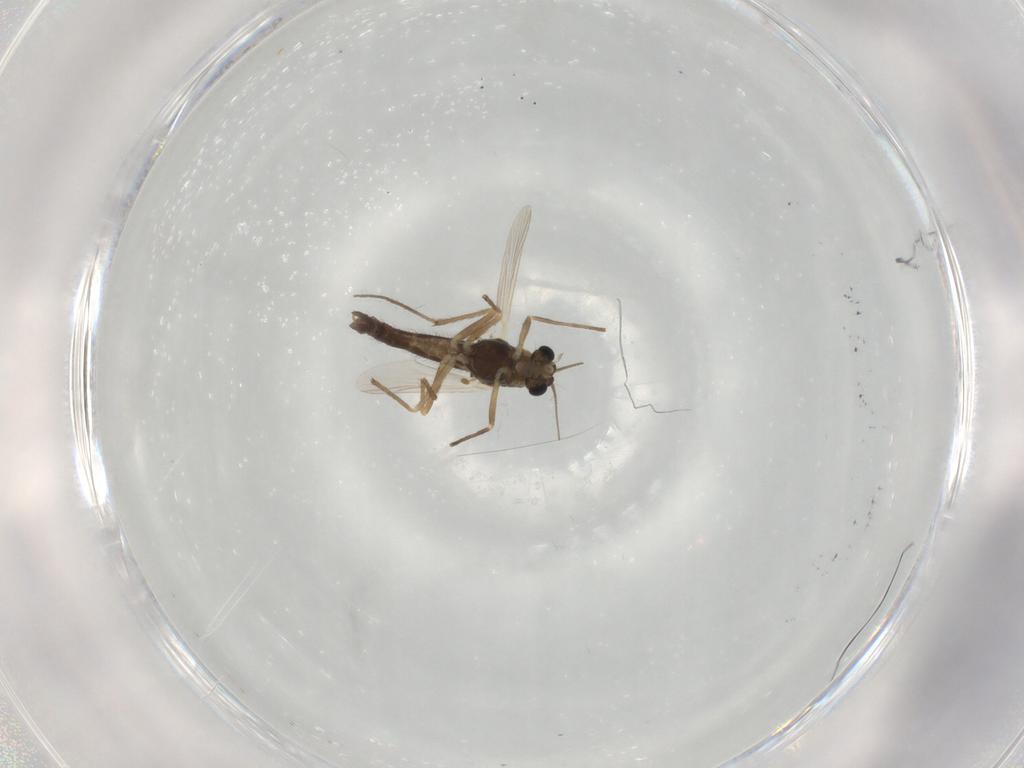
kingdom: Animalia
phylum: Arthropoda
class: Insecta
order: Diptera
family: Chironomidae
